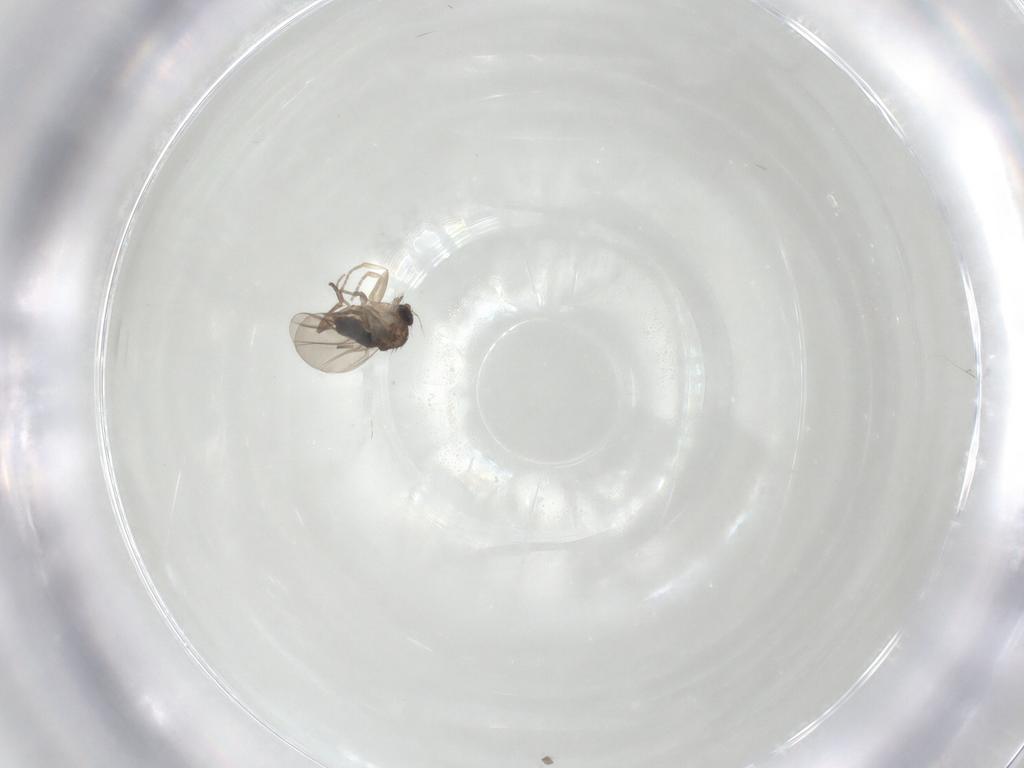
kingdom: Animalia
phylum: Arthropoda
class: Insecta
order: Diptera
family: Phoridae
